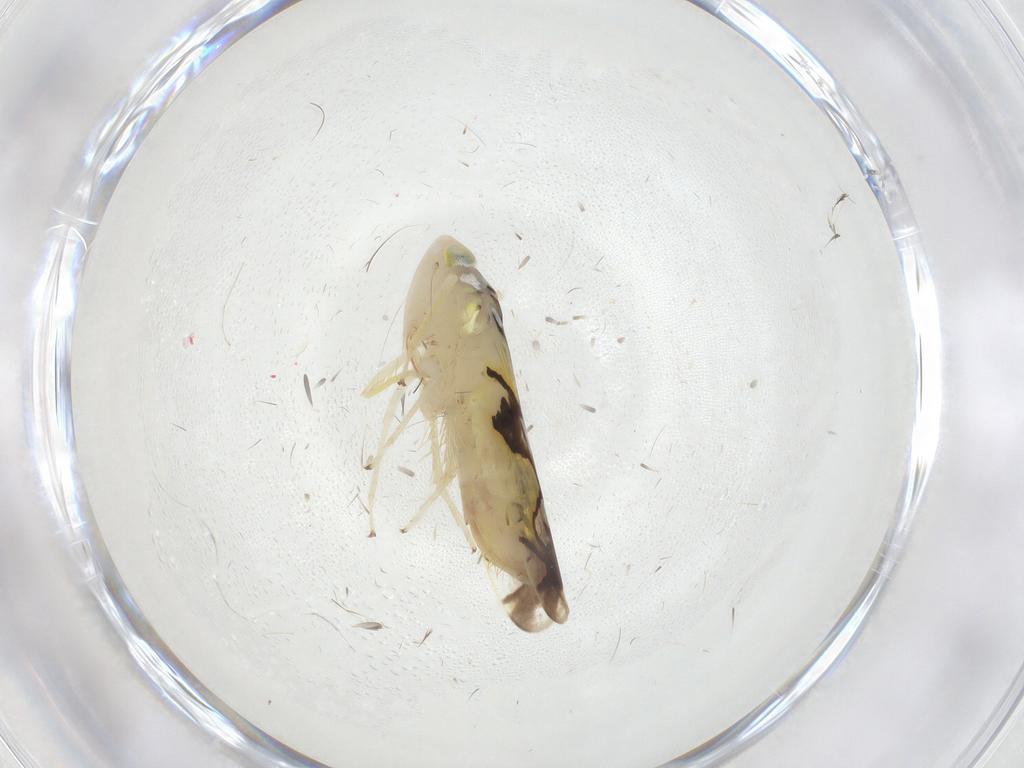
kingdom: Animalia
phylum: Arthropoda
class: Insecta
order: Hemiptera
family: Cicadellidae
